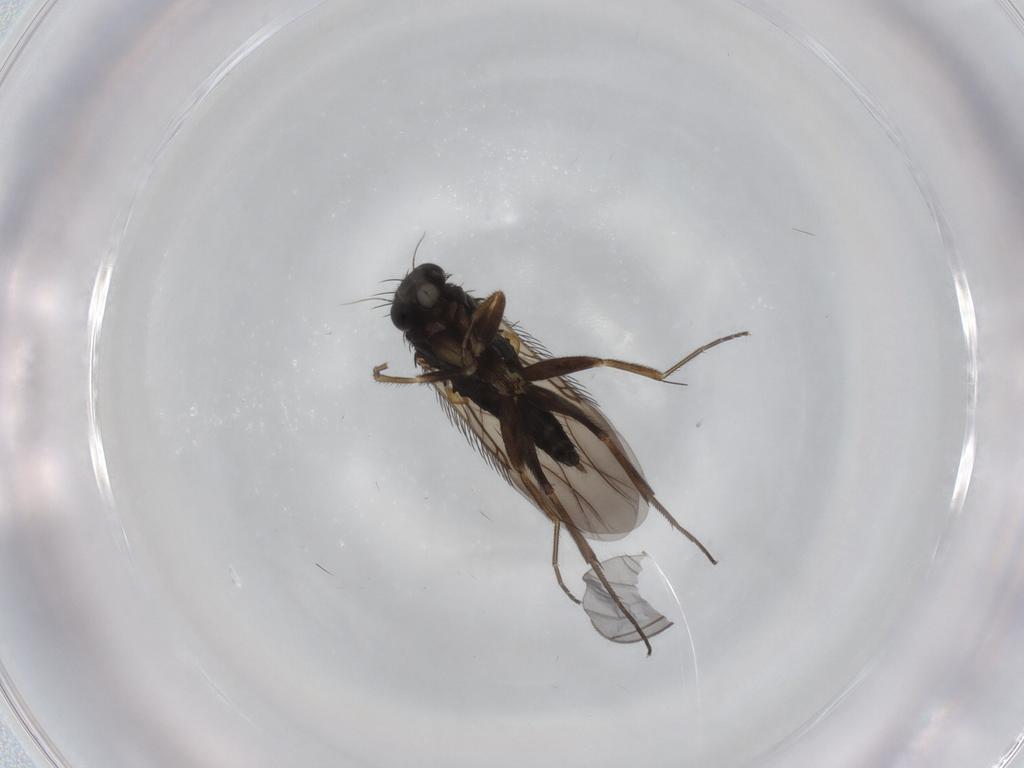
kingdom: Animalia
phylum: Arthropoda
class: Insecta
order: Diptera
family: Phoridae
